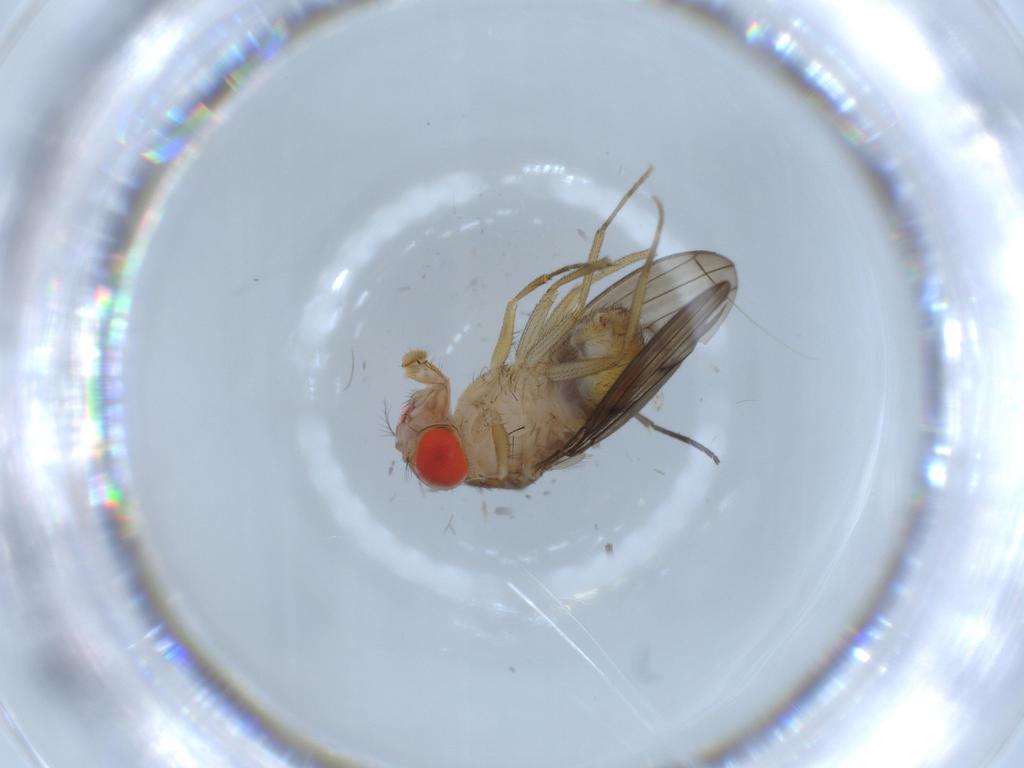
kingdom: Animalia
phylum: Arthropoda
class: Insecta
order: Diptera
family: Drosophilidae
